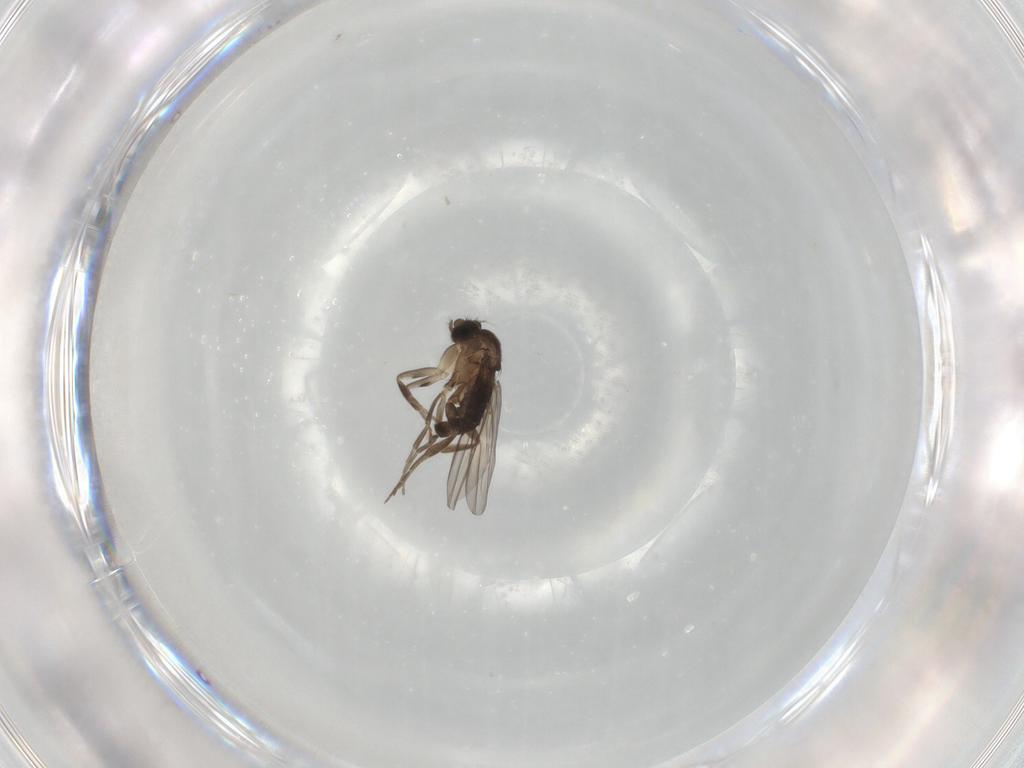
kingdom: Animalia
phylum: Arthropoda
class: Insecta
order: Diptera
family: Phoridae
